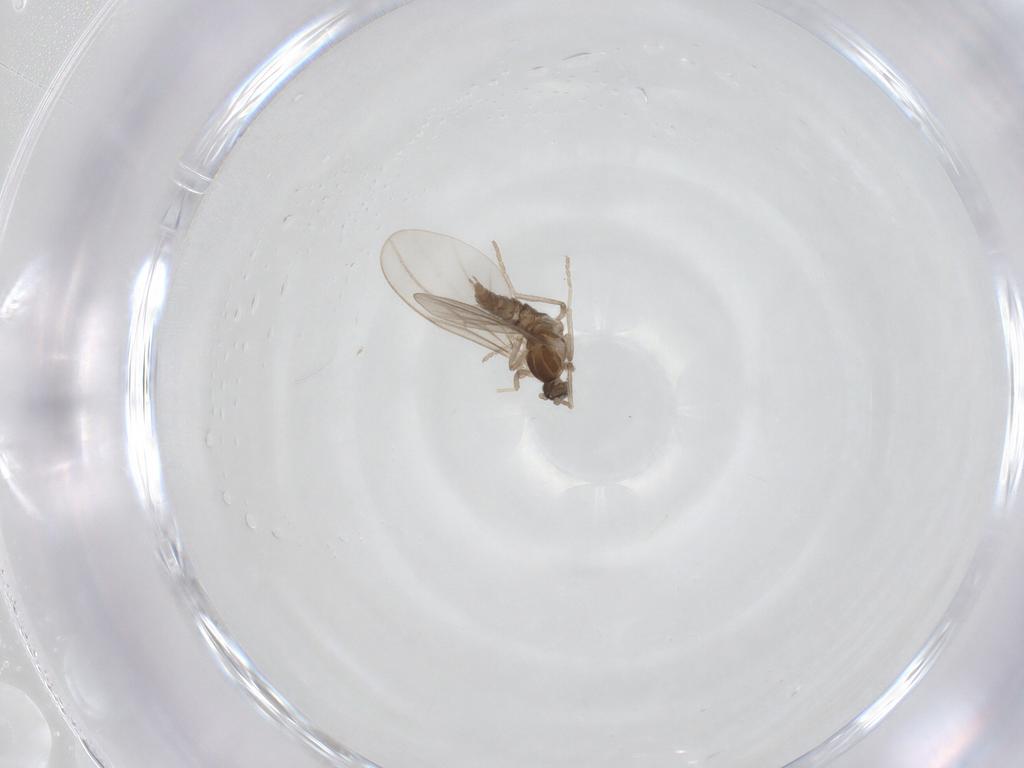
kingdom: Animalia
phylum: Arthropoda
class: Insecta
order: Diptera
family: Cecidomyiidae
